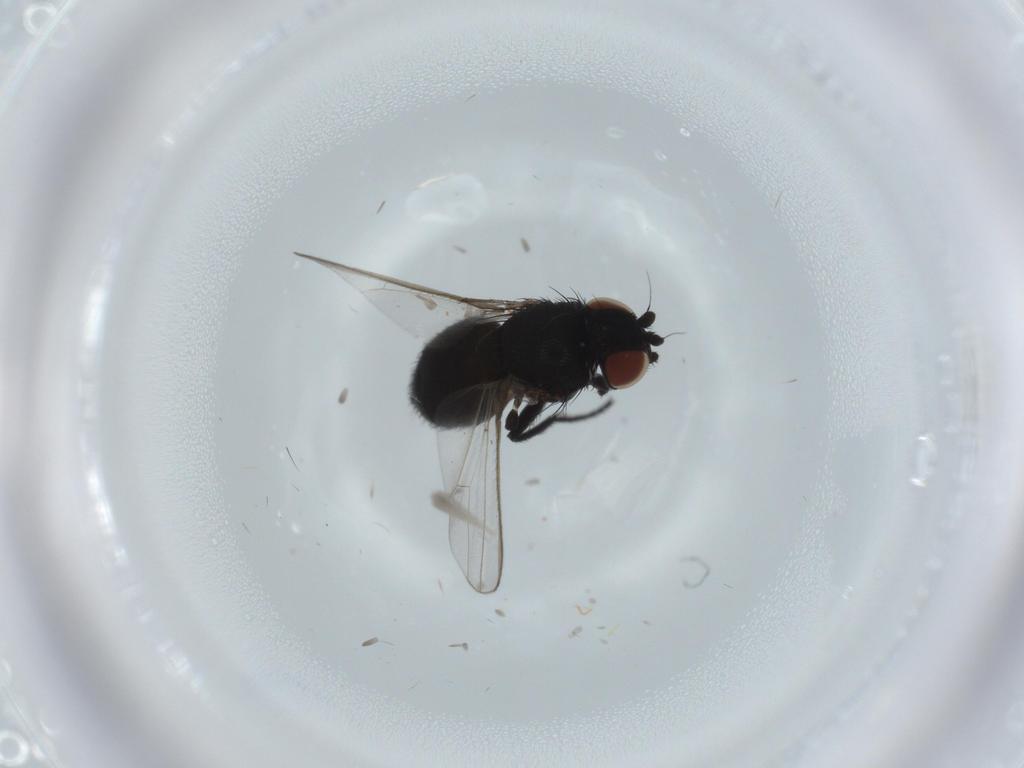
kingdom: Animalia
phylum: Arthropoda
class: Insecta
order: Diptera
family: Milichiidae
